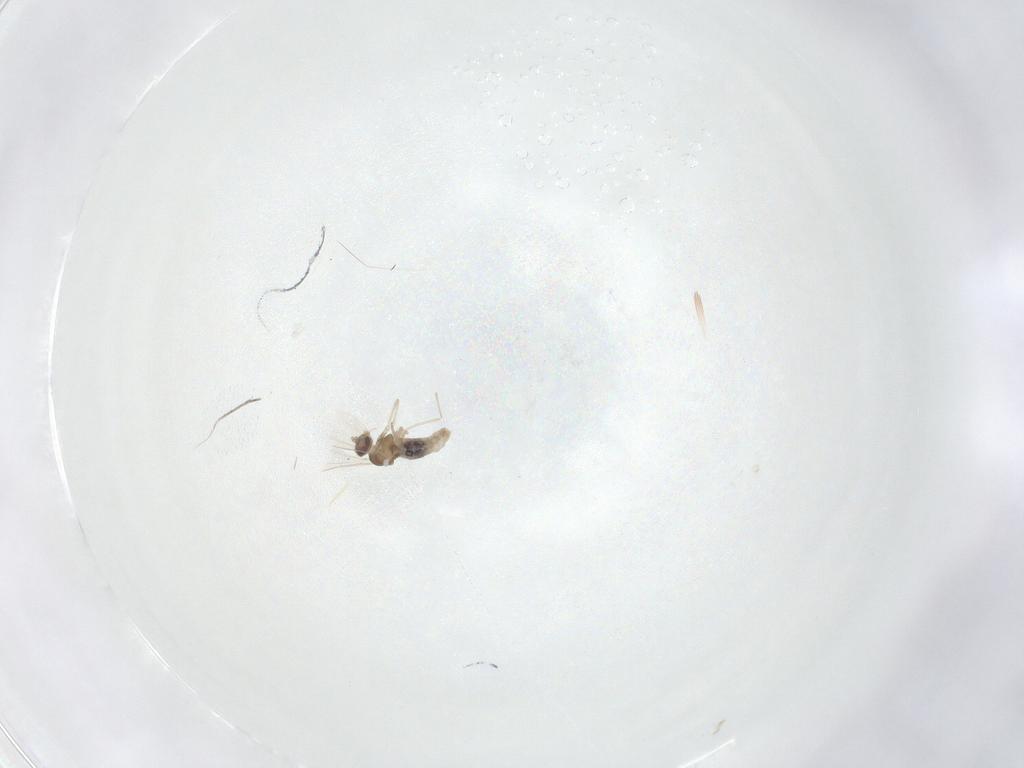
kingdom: Animalia
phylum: Arthropoda
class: Insecta
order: Diptera
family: Cecidomyiidae
